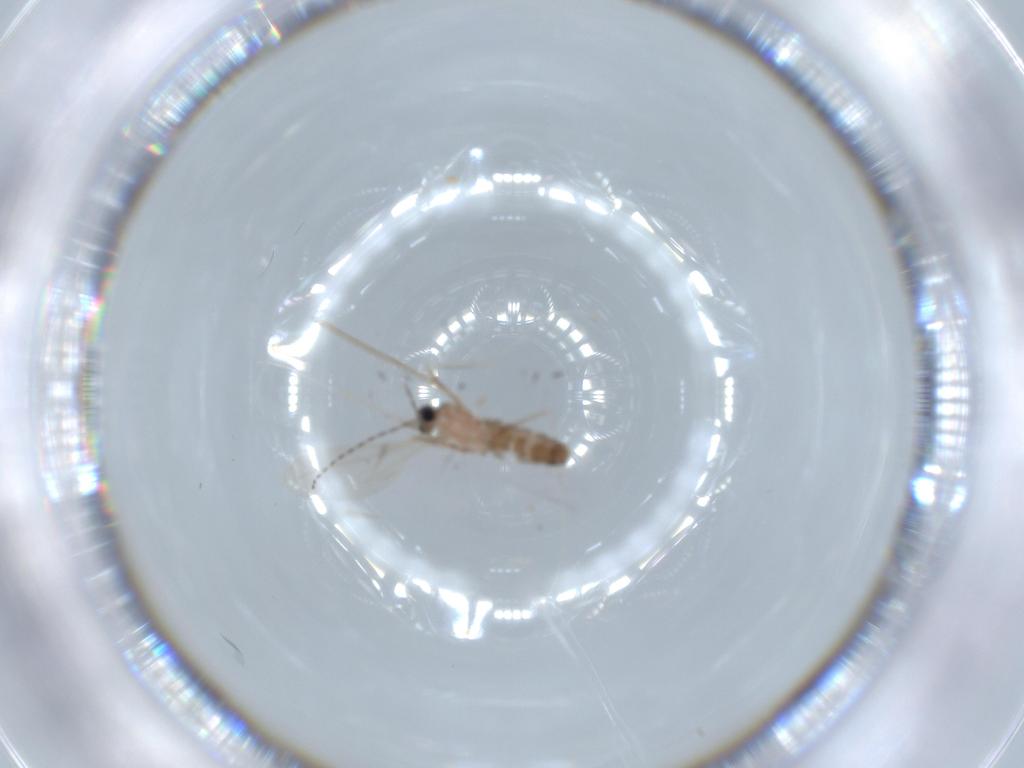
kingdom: Animalia
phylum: Arthropoda
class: Insecta
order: Diptera
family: Cecidomyiidae
